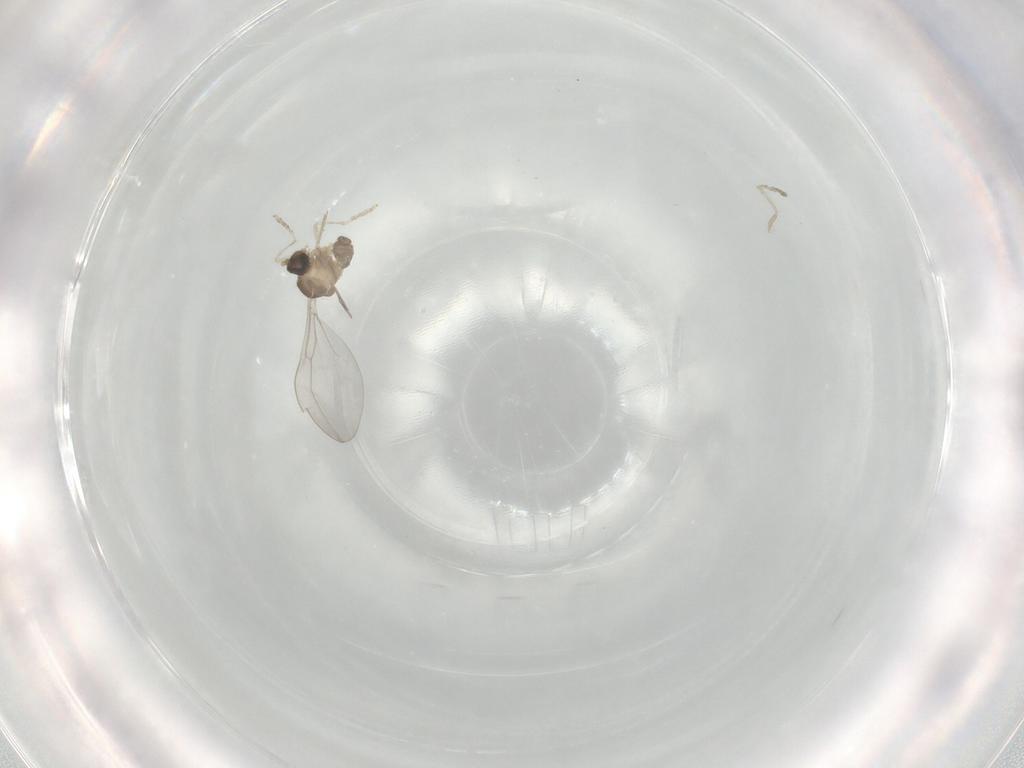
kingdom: Animalia
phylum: Arthropoda
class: Insecta
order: Diptera
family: Cecidomyiidae
